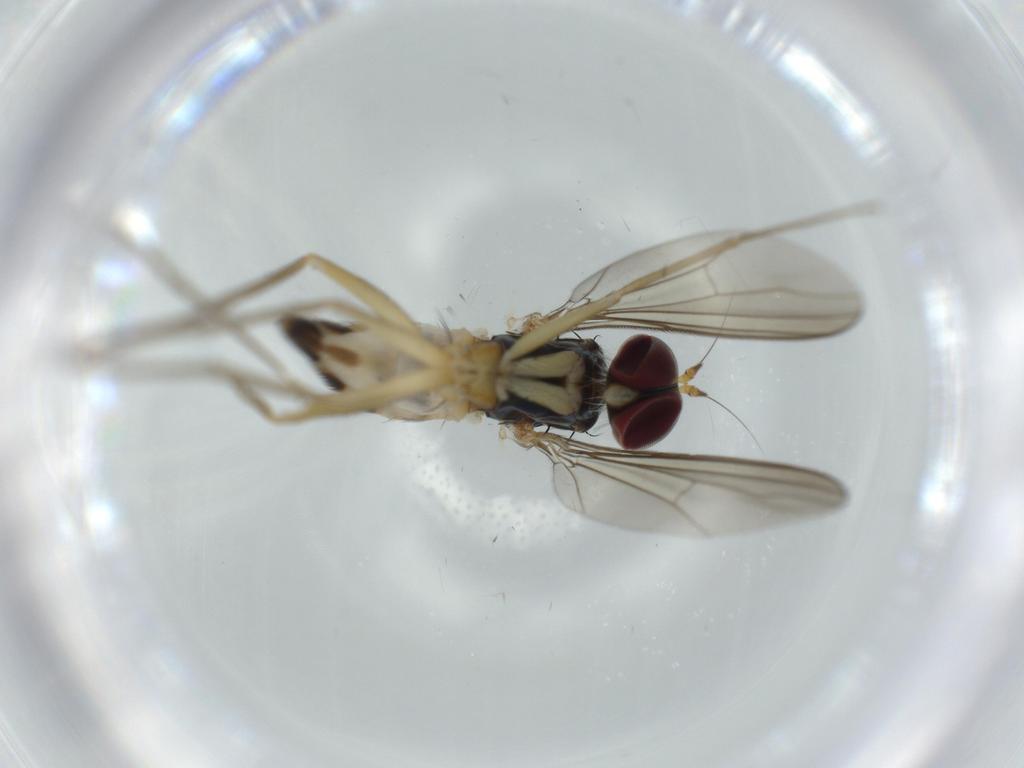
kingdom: Animalia
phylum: Arthropoda
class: Insecta
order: Diptera
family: Dolichopodidae
